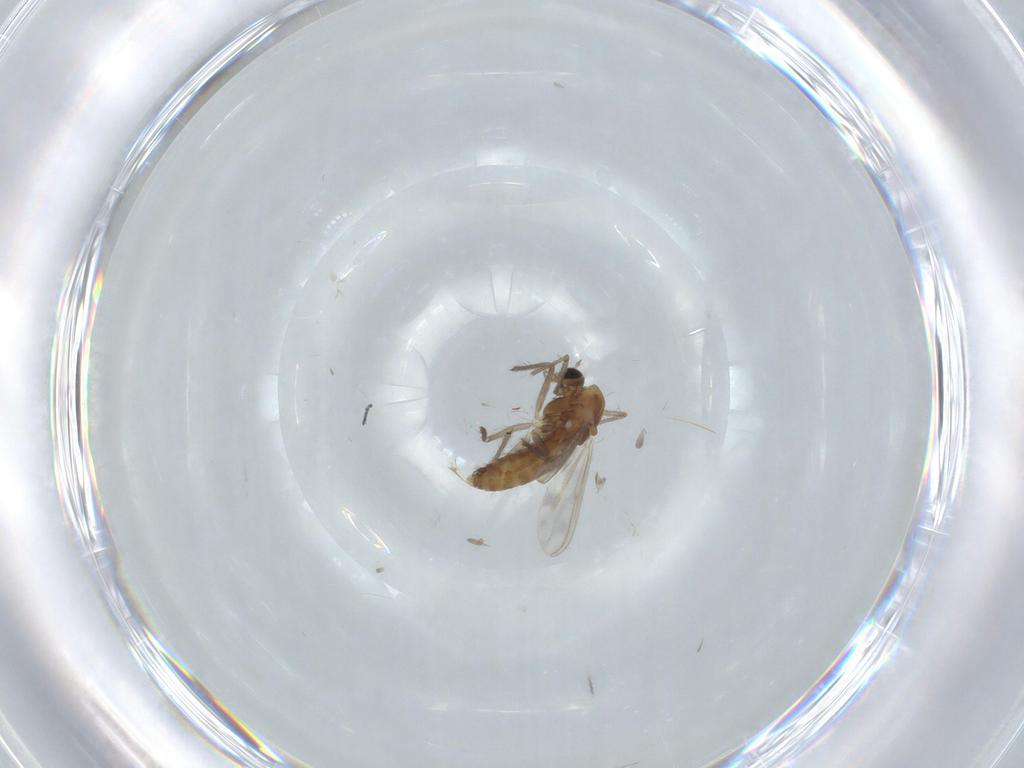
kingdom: Animalia
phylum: Arthropoda
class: Insecta
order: Diptera
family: Chironomidae
